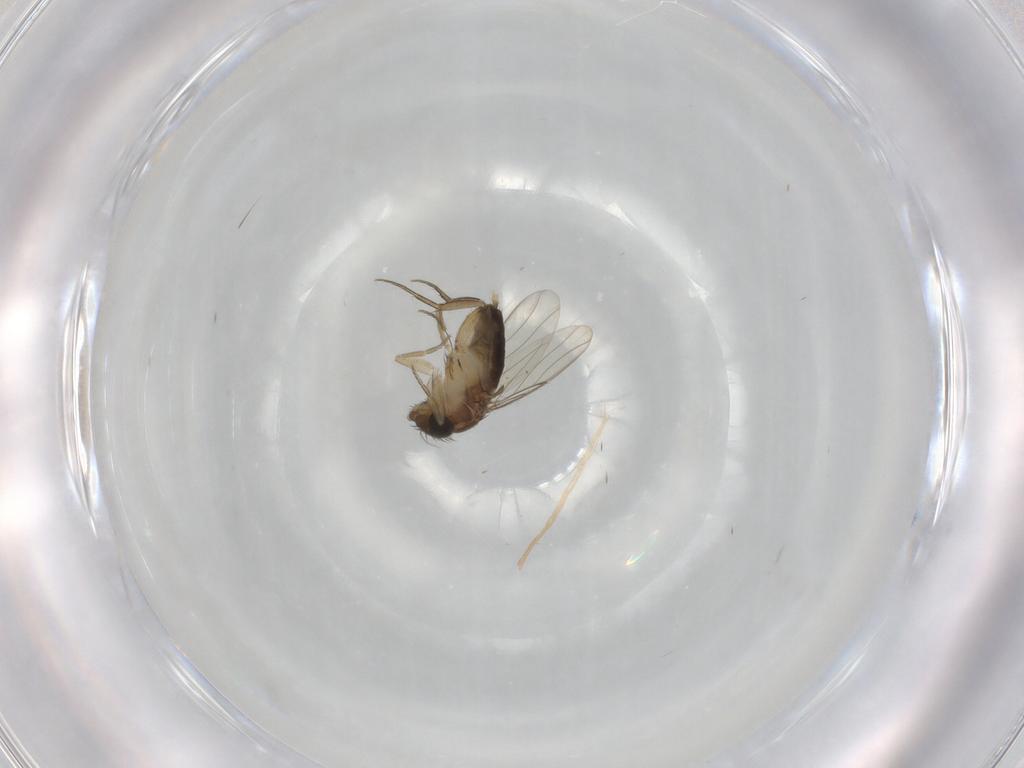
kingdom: Animalia
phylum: Arthropoda
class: Insecta
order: Diptera
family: Phoridae
